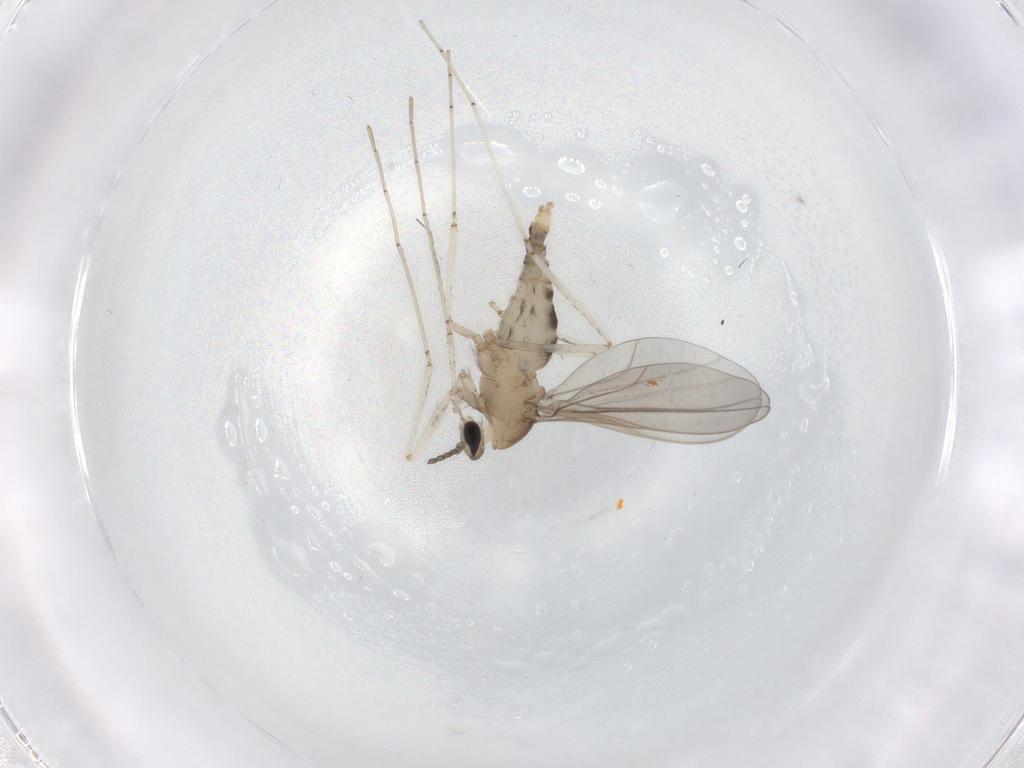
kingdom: Animalia
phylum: Arthropoda
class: Insecta
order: Diptera
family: Cecidomyiidae
